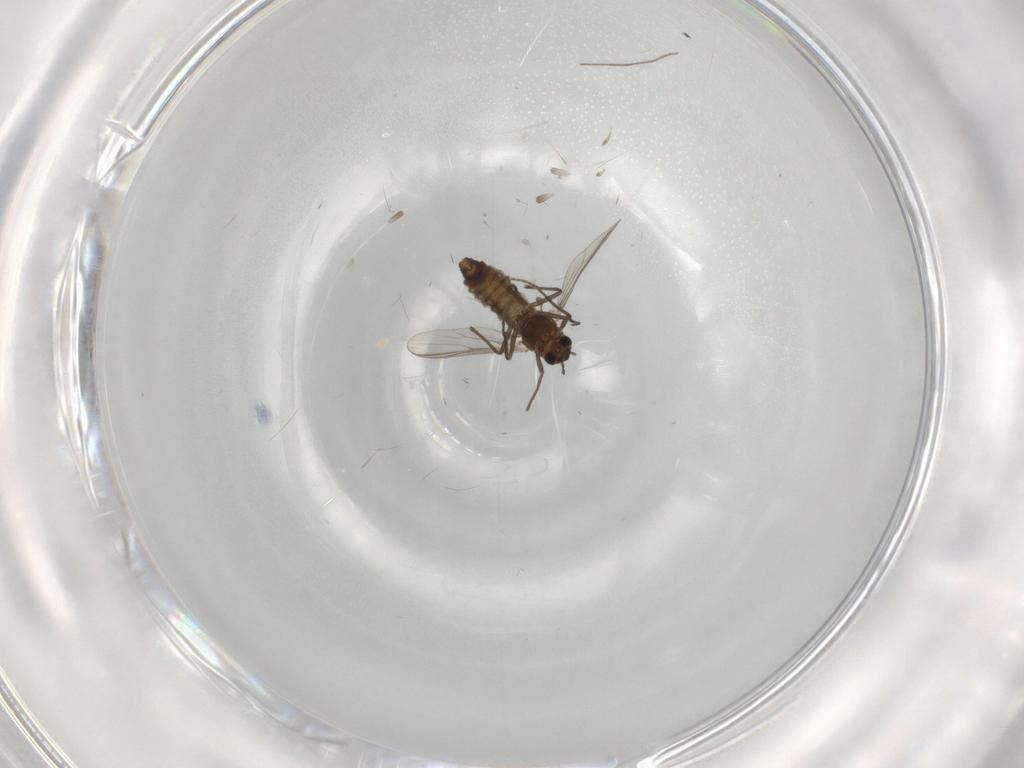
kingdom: Animalia
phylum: Arthropoda
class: Insecta
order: Diptera
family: Chironomidae
